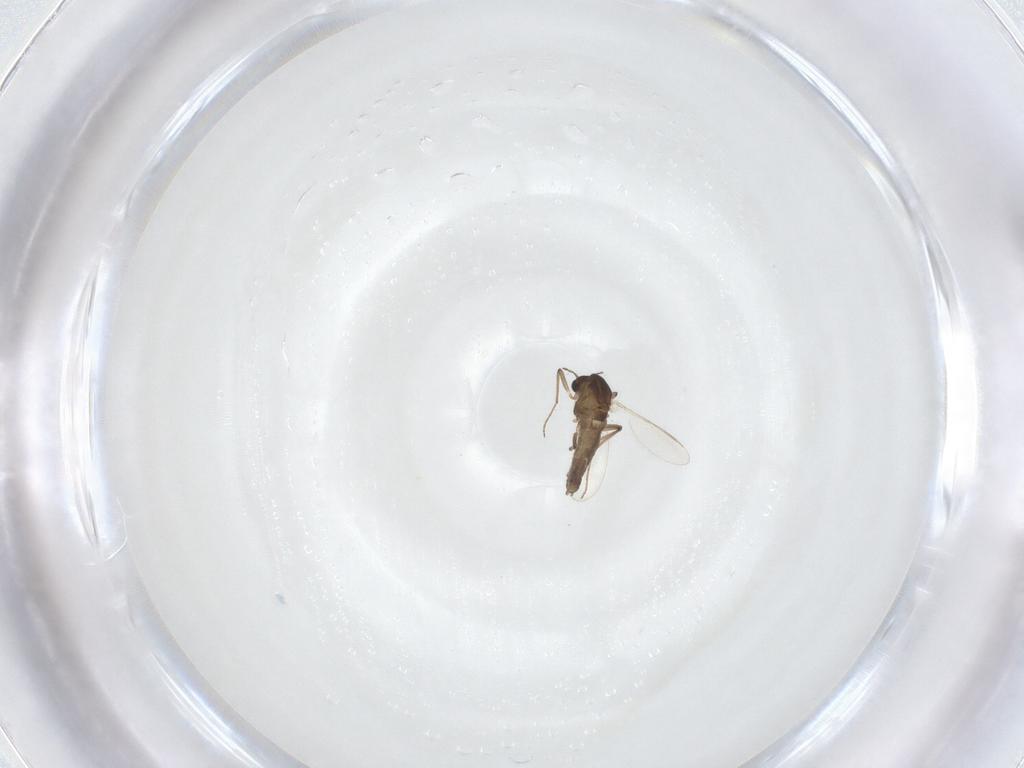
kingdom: Animalia
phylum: Arthropoda
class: Insecta
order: Diptera
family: Chironomidae
